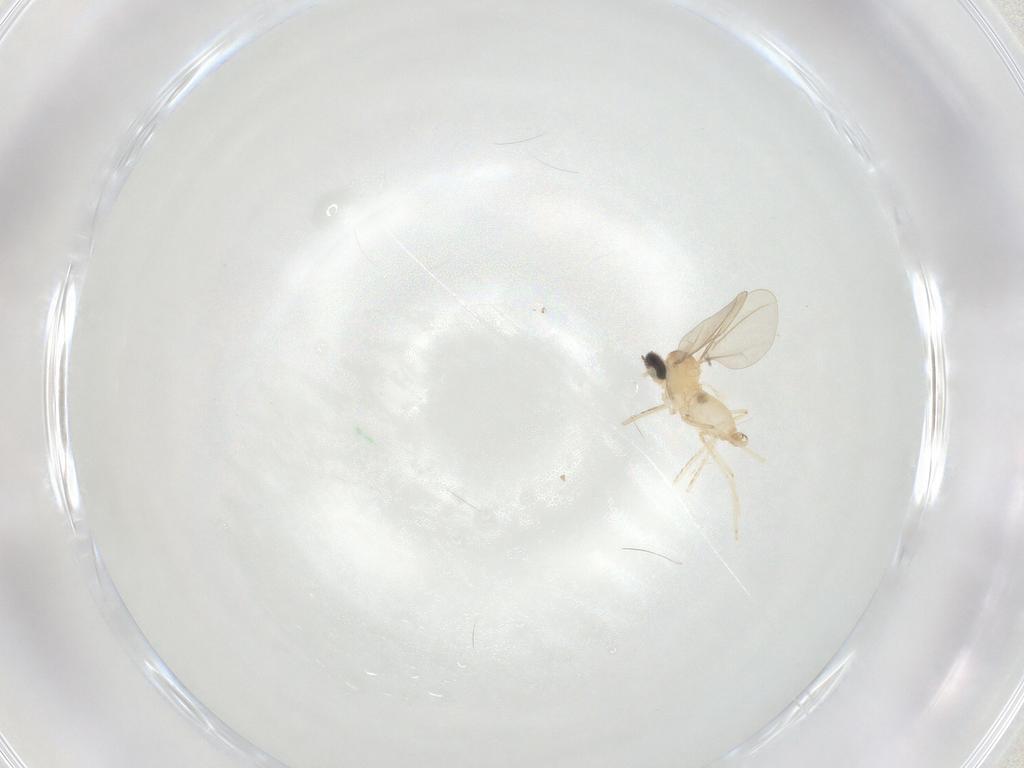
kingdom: Animalia
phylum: Arthropoda
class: Insecta
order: Diptera
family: Cecidomyiidae
